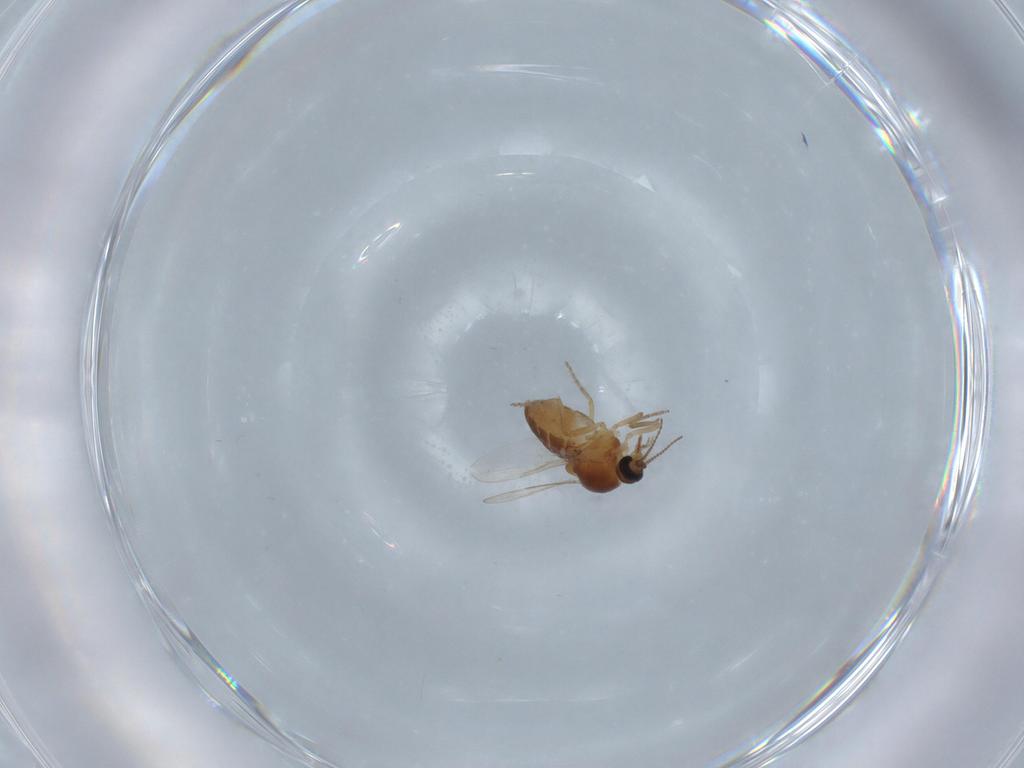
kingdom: Animalia
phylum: Arthropoda
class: Insecta
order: Diptera
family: Ceratopogonidae
